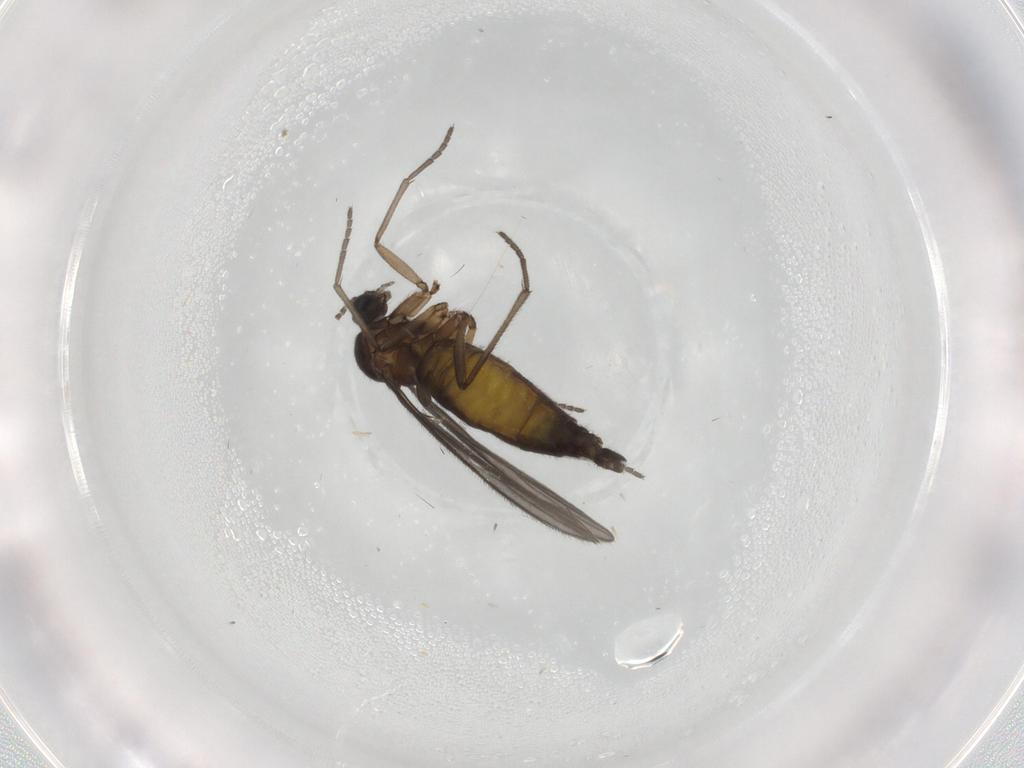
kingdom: Animalia
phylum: Arthropoda
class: Insecta
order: Diptera
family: Sciaridae
